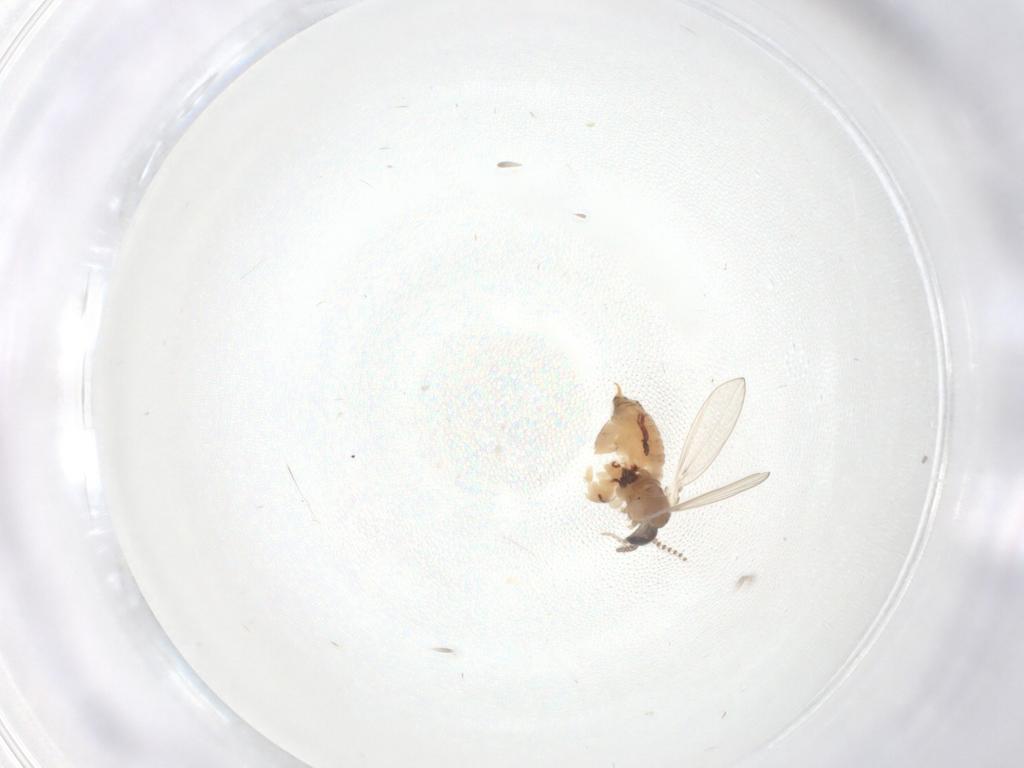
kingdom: Animalia
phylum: Arthropoda
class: Insecta
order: Diptera
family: Psychodidae
